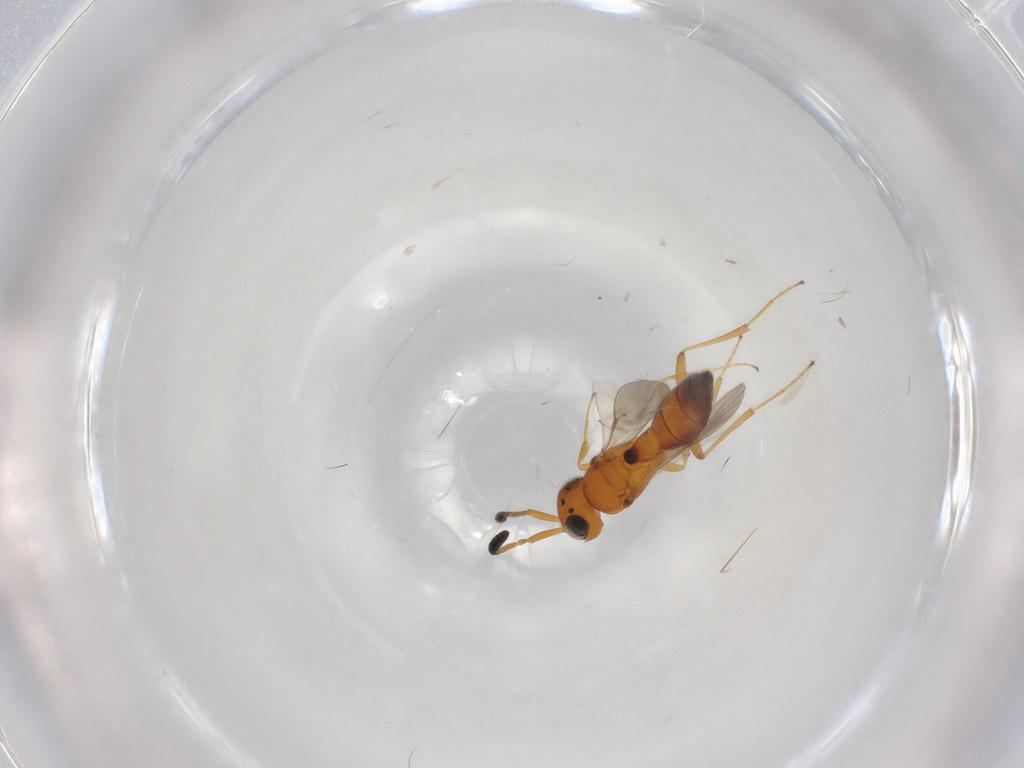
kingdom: Animalia
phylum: Arthropoda
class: Insecta
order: Hymenoptera
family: Scelionidae
